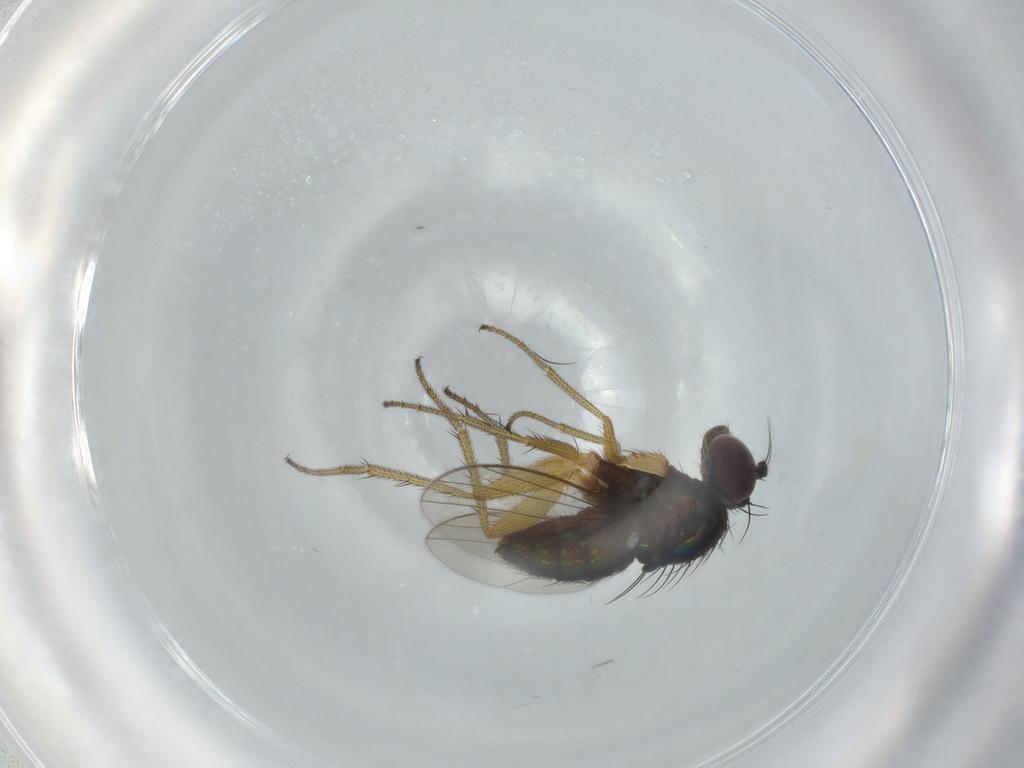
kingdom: Animalia
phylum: Arthropoda
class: Insecta
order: Diptera
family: Dolichopodidae
